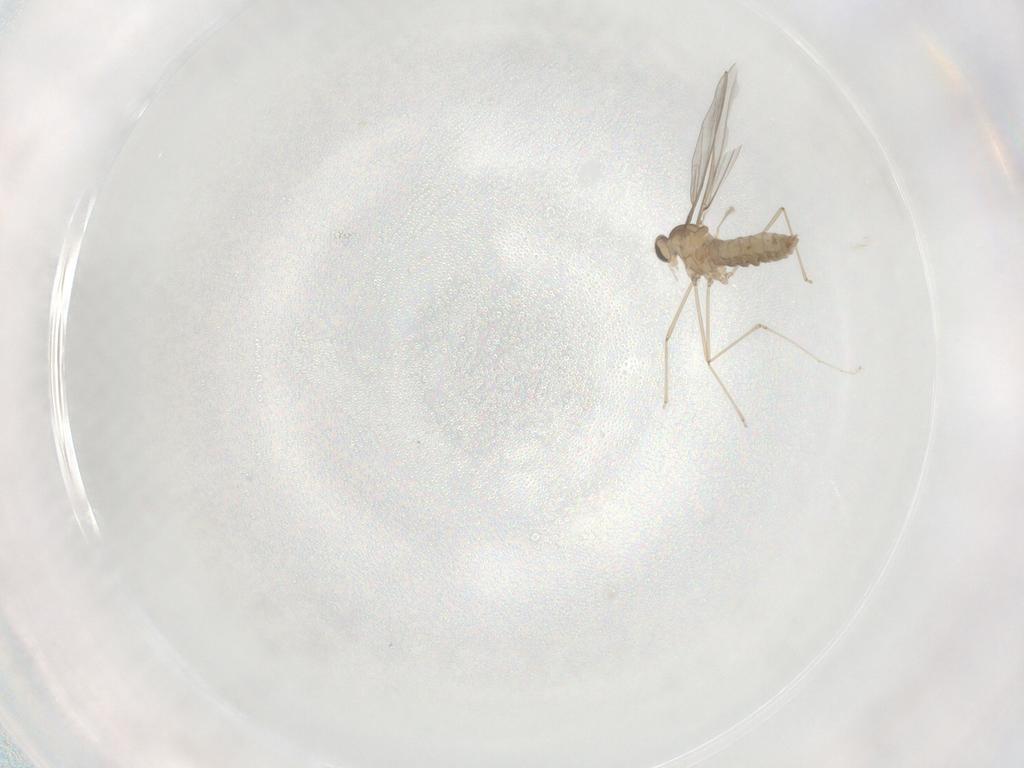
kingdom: Animalia
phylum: Arthropoda
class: Insecta
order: Diptera
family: Cecidomyiidae
